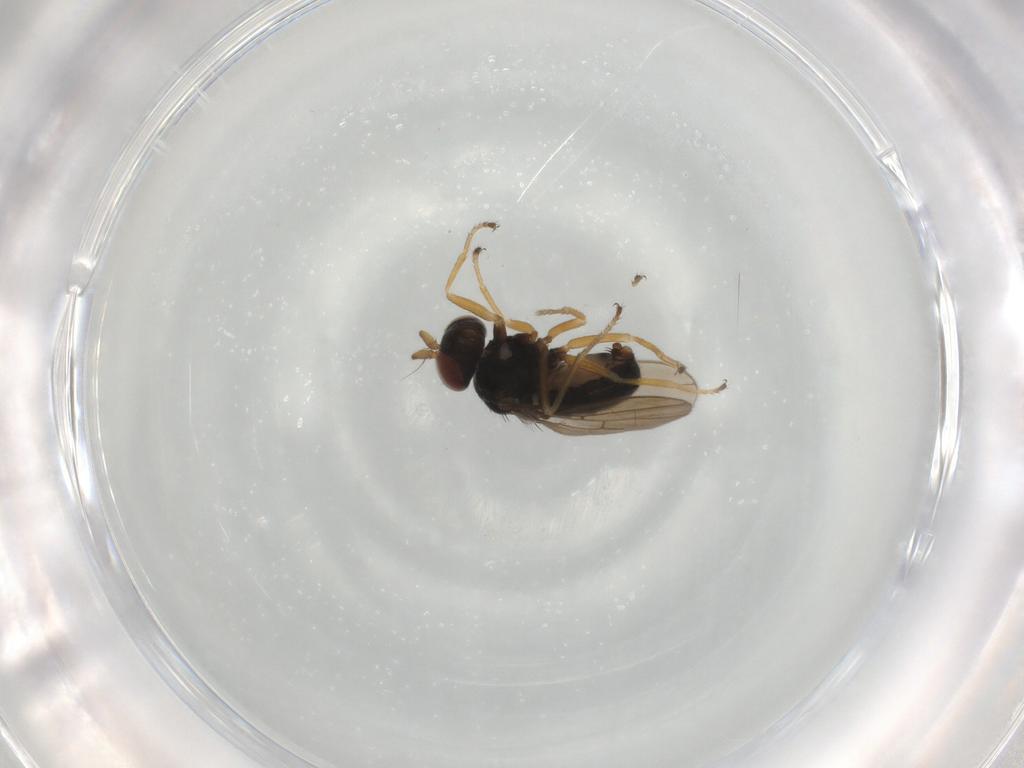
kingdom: Animalia
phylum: Arthropoda
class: Insecta
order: Diptera
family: Ephydridae
